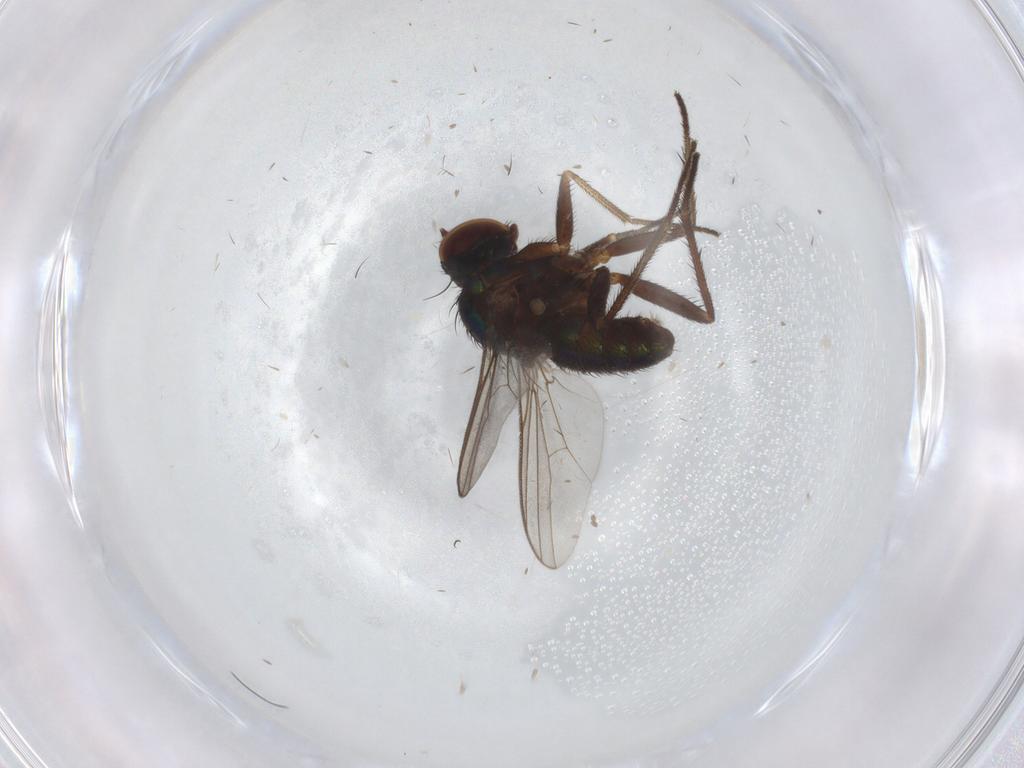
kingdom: Animalia
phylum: Arthropoda
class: Insecta
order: Diptera
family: Dolichopodidae
